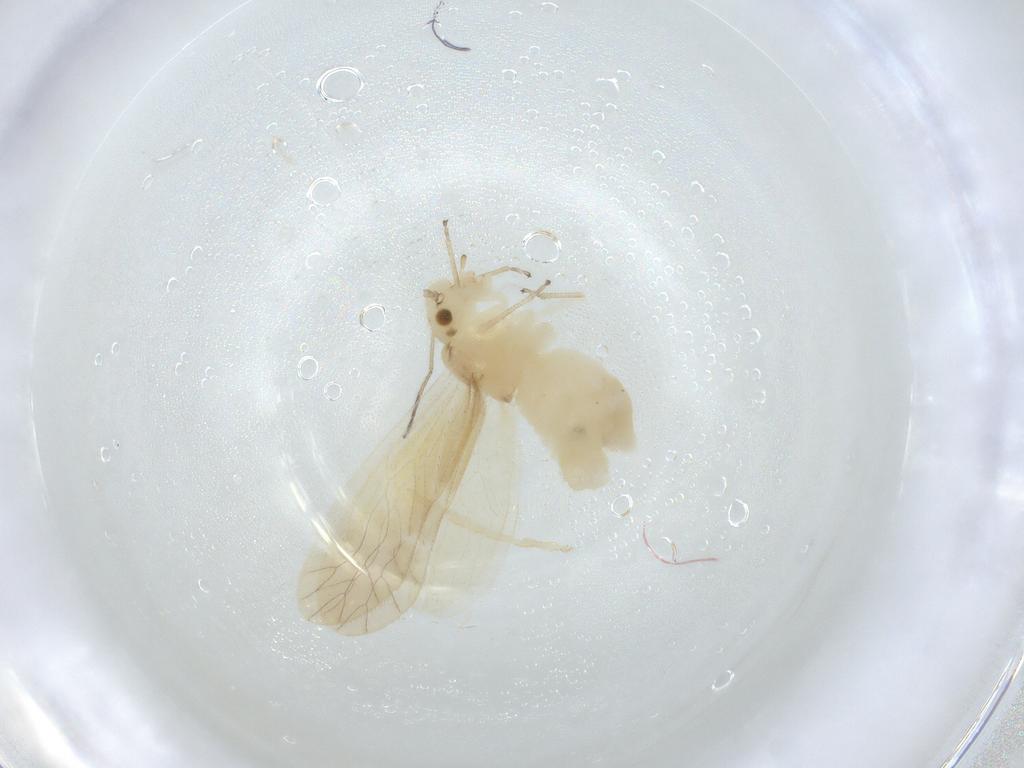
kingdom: Animalia
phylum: Arthropoda
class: Insecta
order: Psocodea
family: Caeciliusidae
